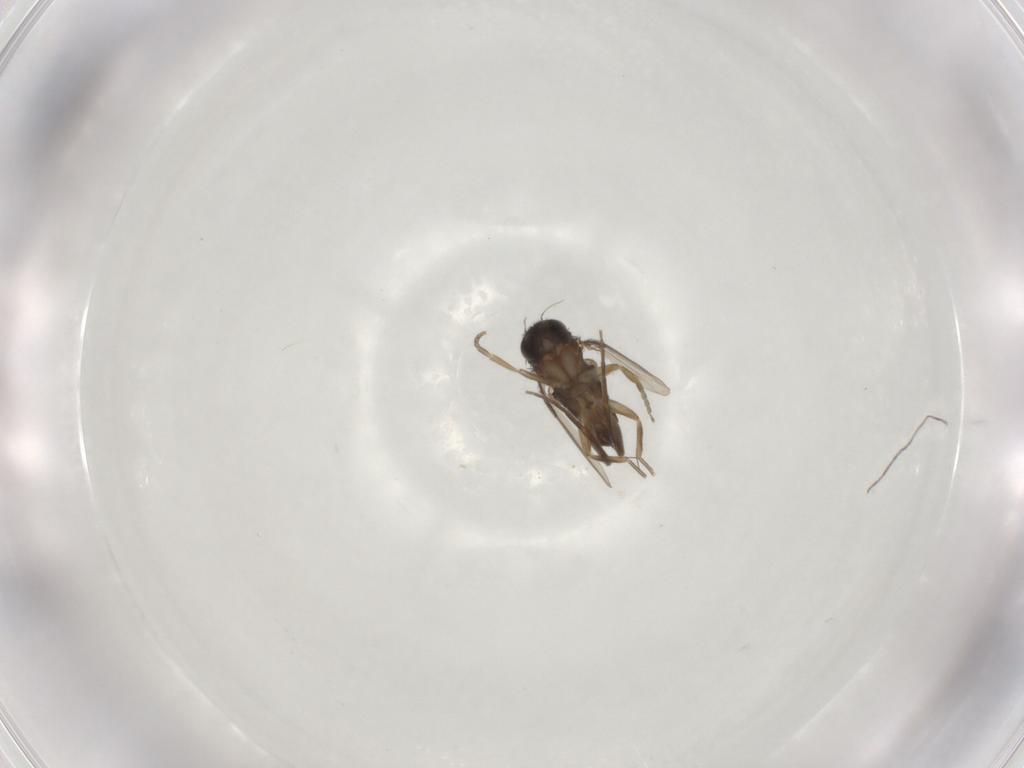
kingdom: Animalia
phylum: Arthropoda
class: Insecta
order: Diptera
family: Phoridae
